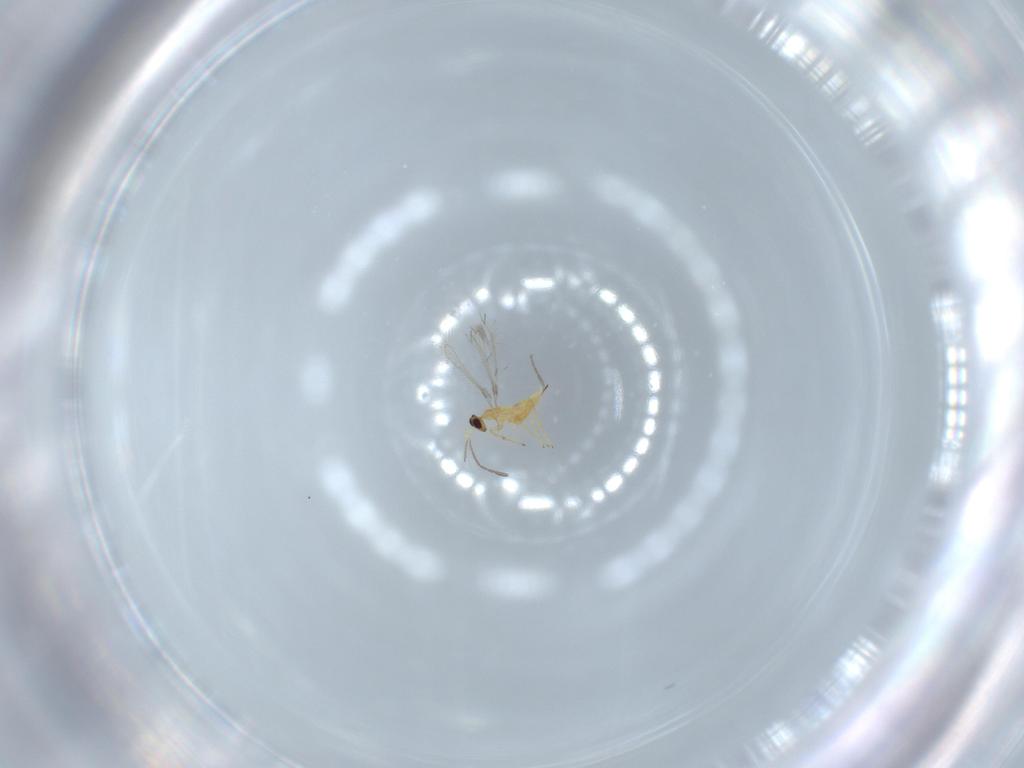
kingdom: Animalia
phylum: Arthropoda
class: Insecta
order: Hymenoptera
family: Mymaridae
